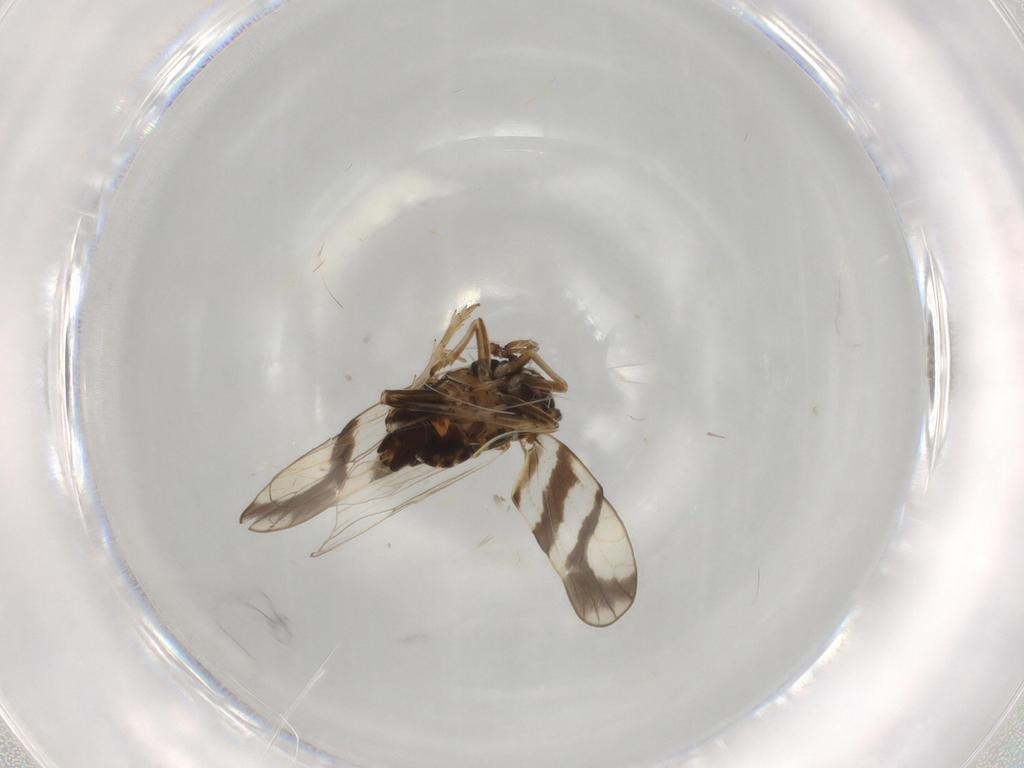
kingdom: Animalia
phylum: Arthropoda
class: Insecta
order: Hemiptera
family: Delphacidae
